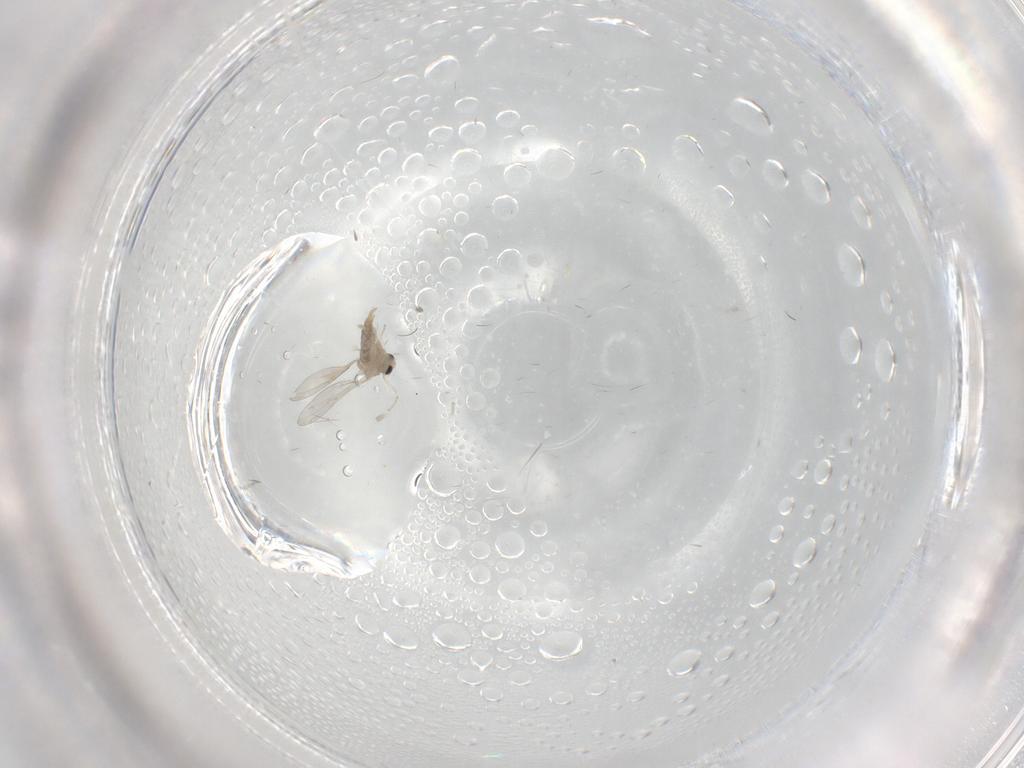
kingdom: Animalia
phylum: Arthropoda
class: Insecta
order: Diptera
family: Cecidomyiidae
